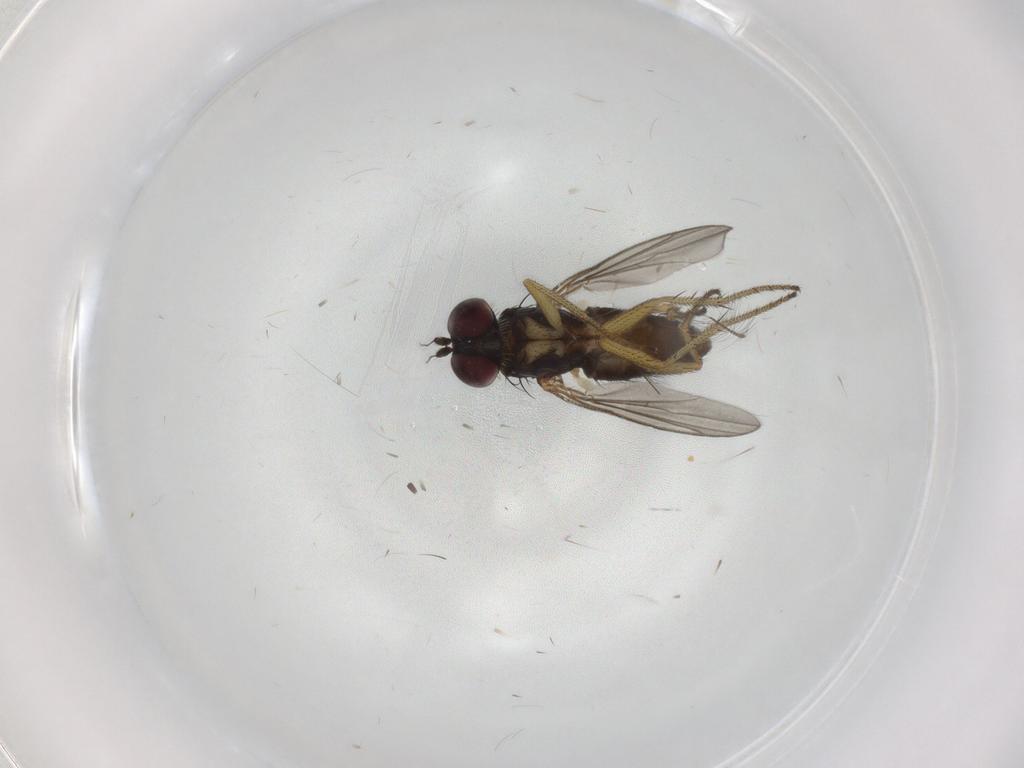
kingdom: Animalia
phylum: Arthropoda
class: Insecta
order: Diptera
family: Chironomidae
